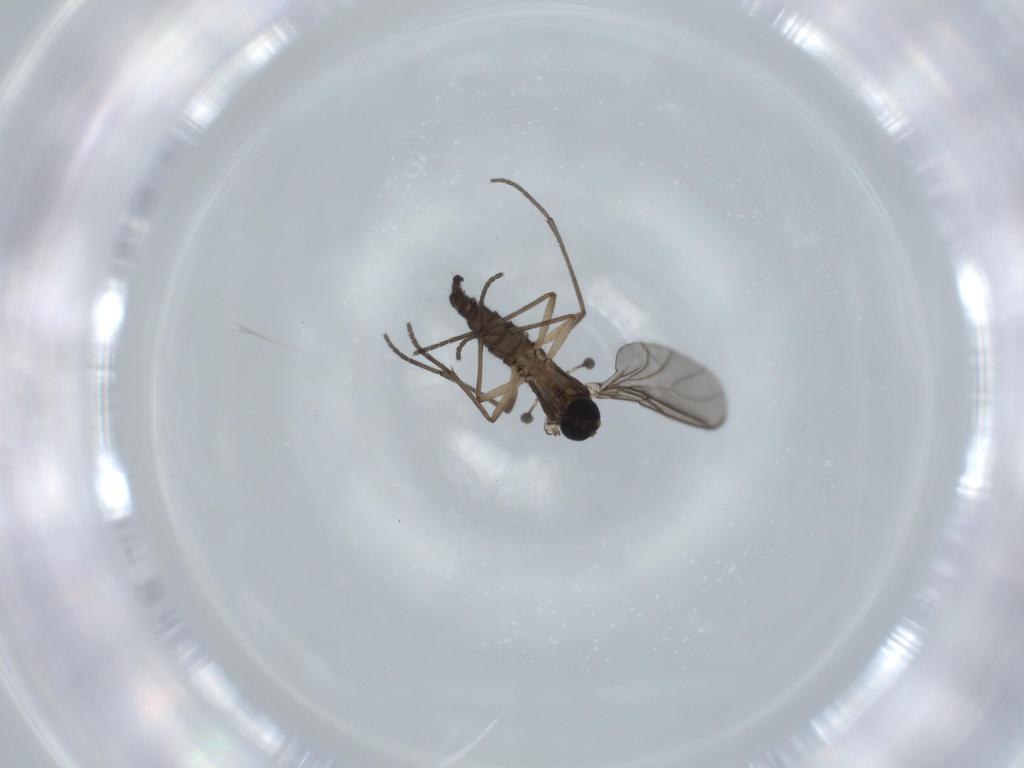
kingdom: Animalia
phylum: Arthropoda
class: Insecta
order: Diptera
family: Sciaridae
